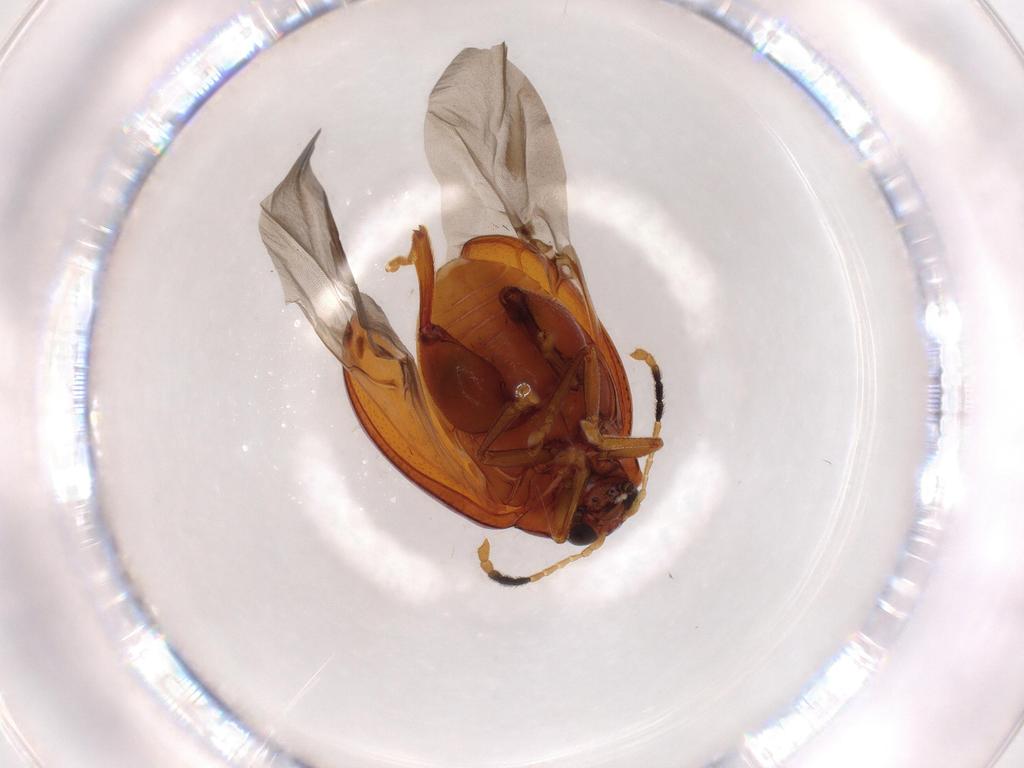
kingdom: Animalia
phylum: Arthropoda
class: Insecta
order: Coleoptera
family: Chrysomelidae
